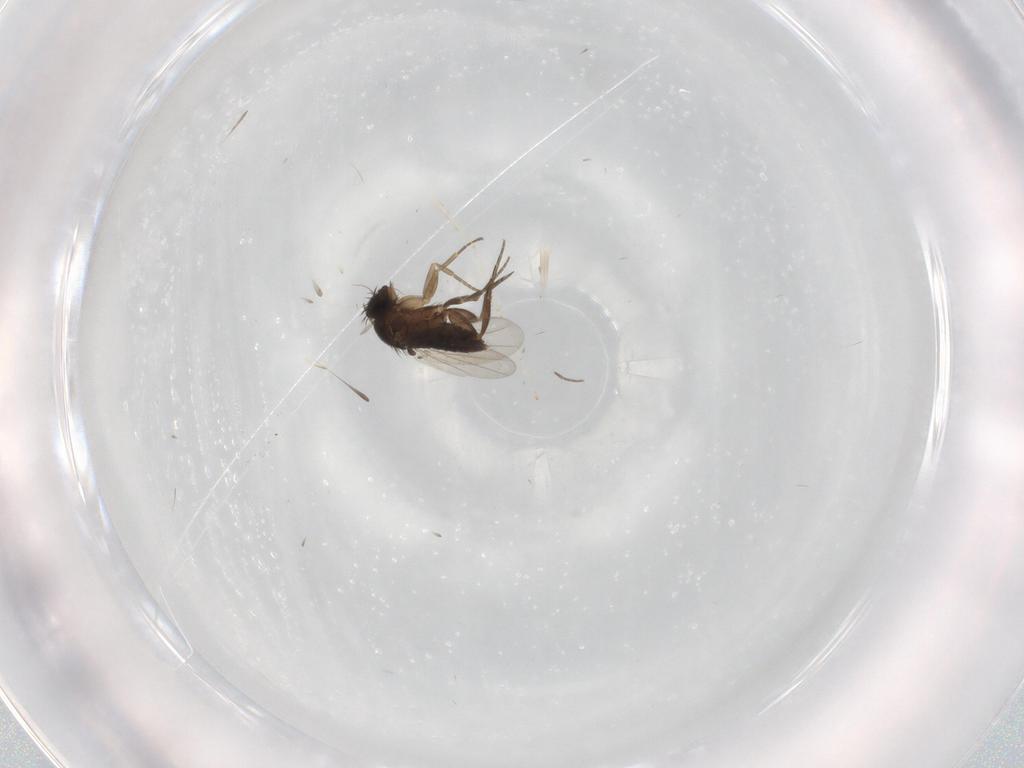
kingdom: Animalia
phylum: Arthropoda
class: Insecta
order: Diptera
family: Phoridae
